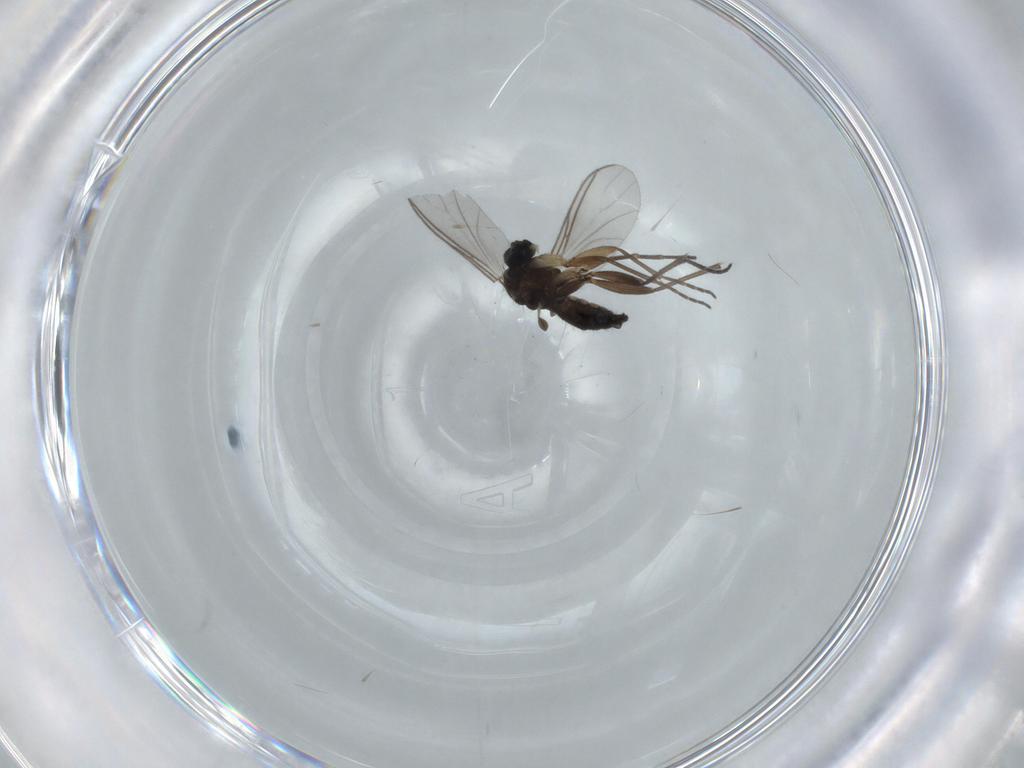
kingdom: Animalia
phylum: Arthropoda
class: Insecta
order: Diptera
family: Sciaridae
